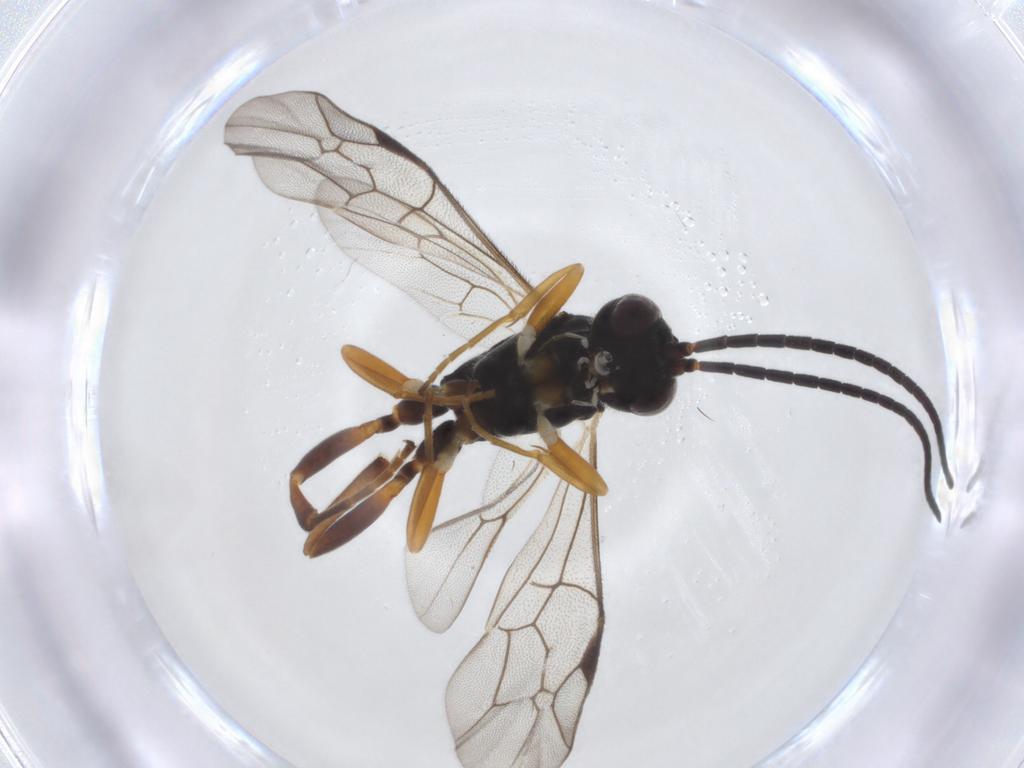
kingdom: Animalia
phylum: Arthropoda
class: Insecta
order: Hymenoptera
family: Ichneumonidae
